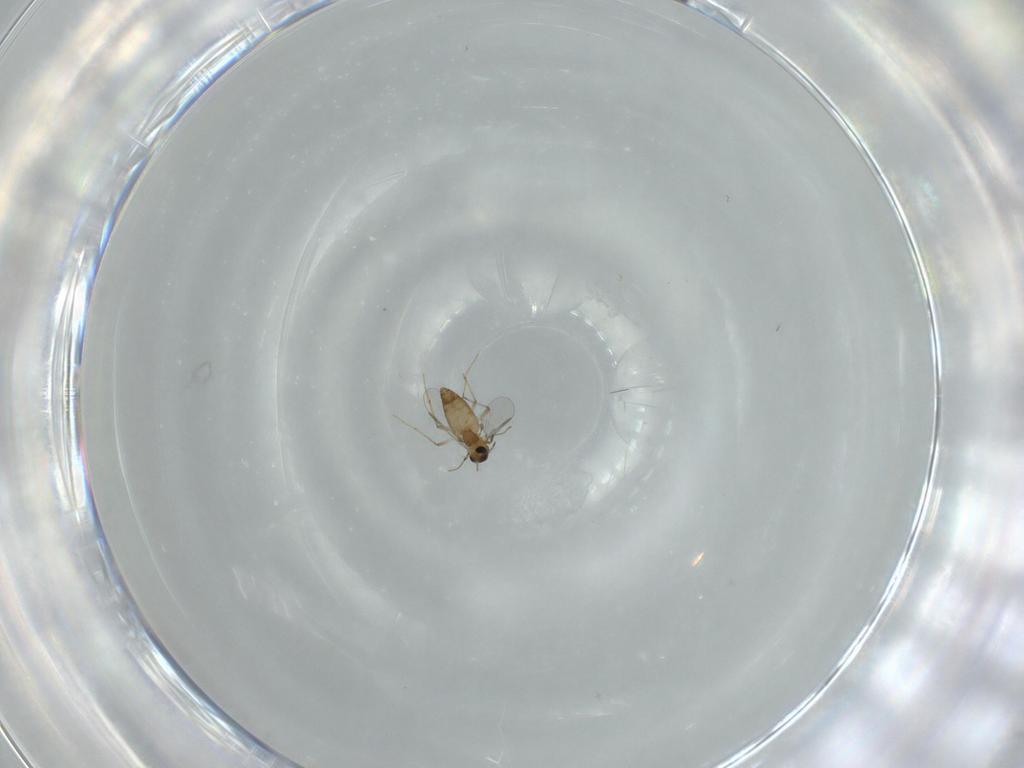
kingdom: Animalia
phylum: Arthropoda
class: Insecta
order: Diptera
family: Chironomidae
